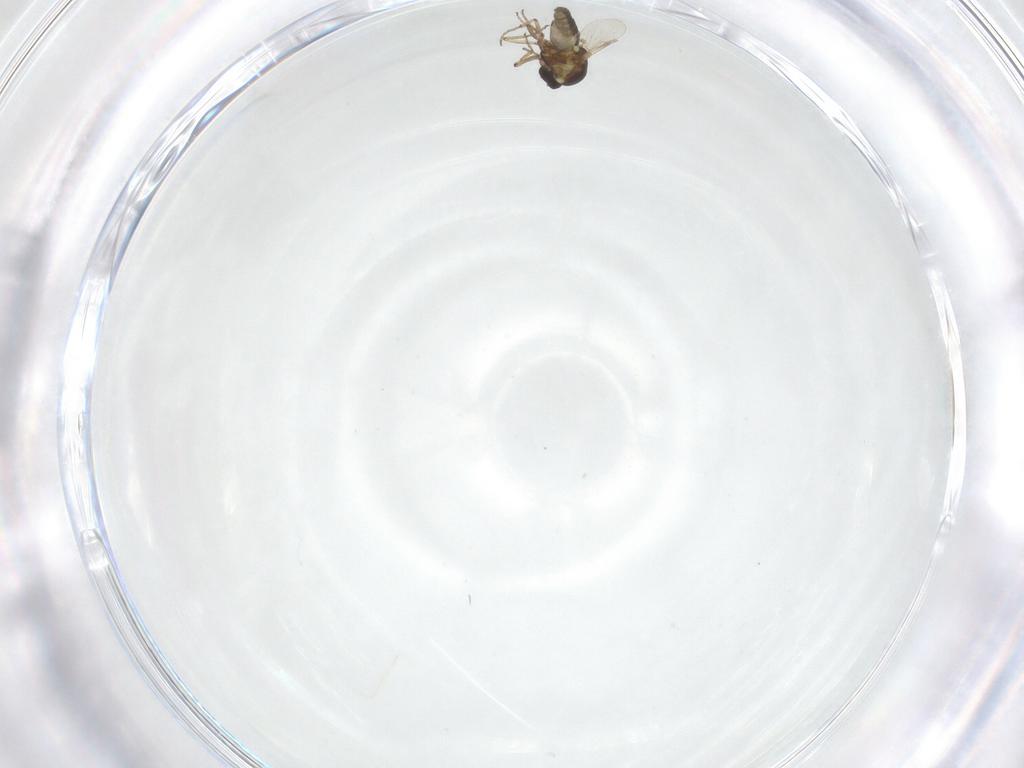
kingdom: Animalia
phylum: Arthropoda
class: Insecta
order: Diptera
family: Ceratopogonidae
